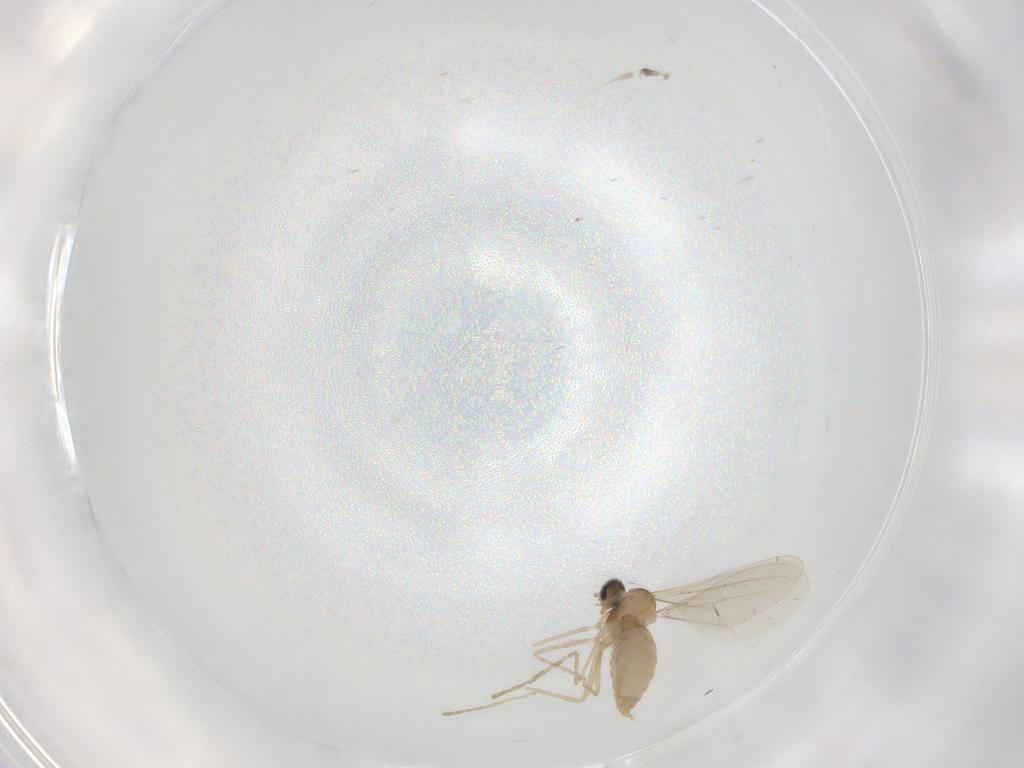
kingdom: Animalia
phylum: Arthropoda
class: Insecta
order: Diptera
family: Cecidomyiidae
